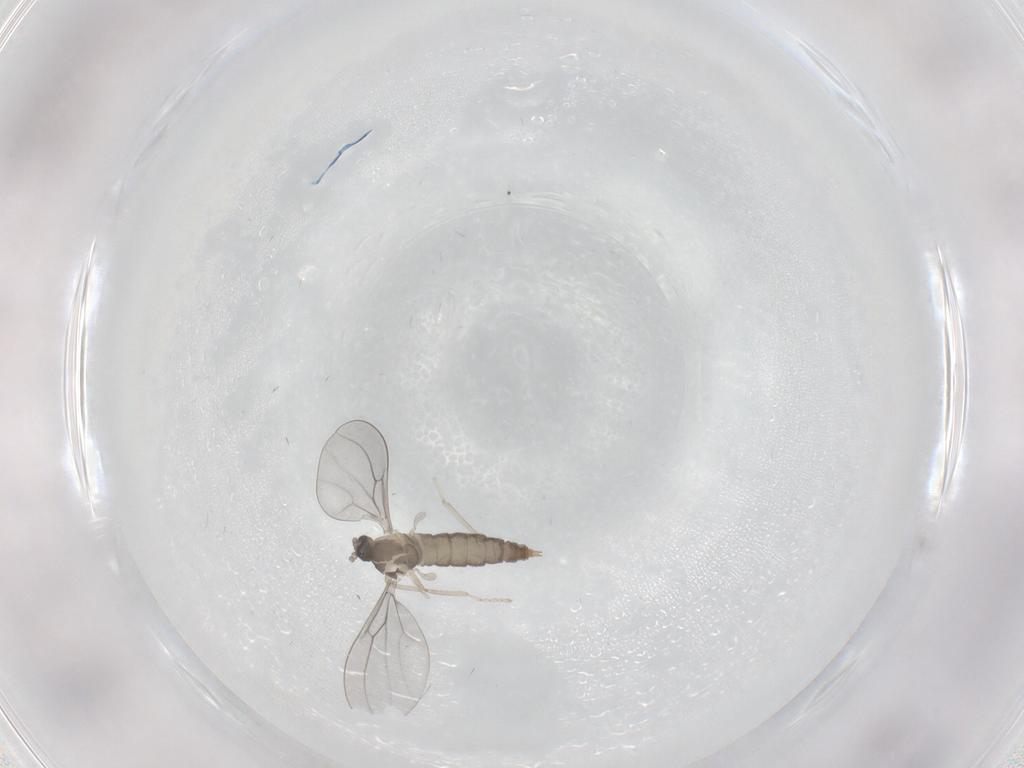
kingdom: Animalia
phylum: Arthropoda
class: Insecta
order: Diptera
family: Cecidomyiidae
